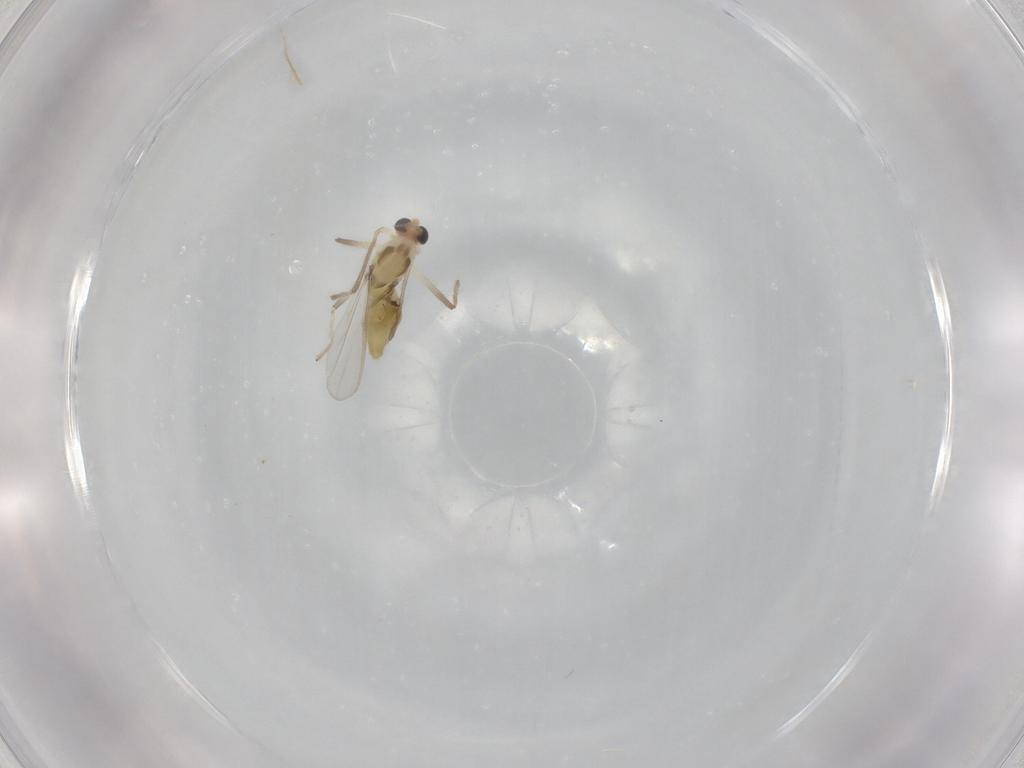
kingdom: Animalia
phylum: Arthropoda
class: Insecta
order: Diptera
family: Chironomidae
